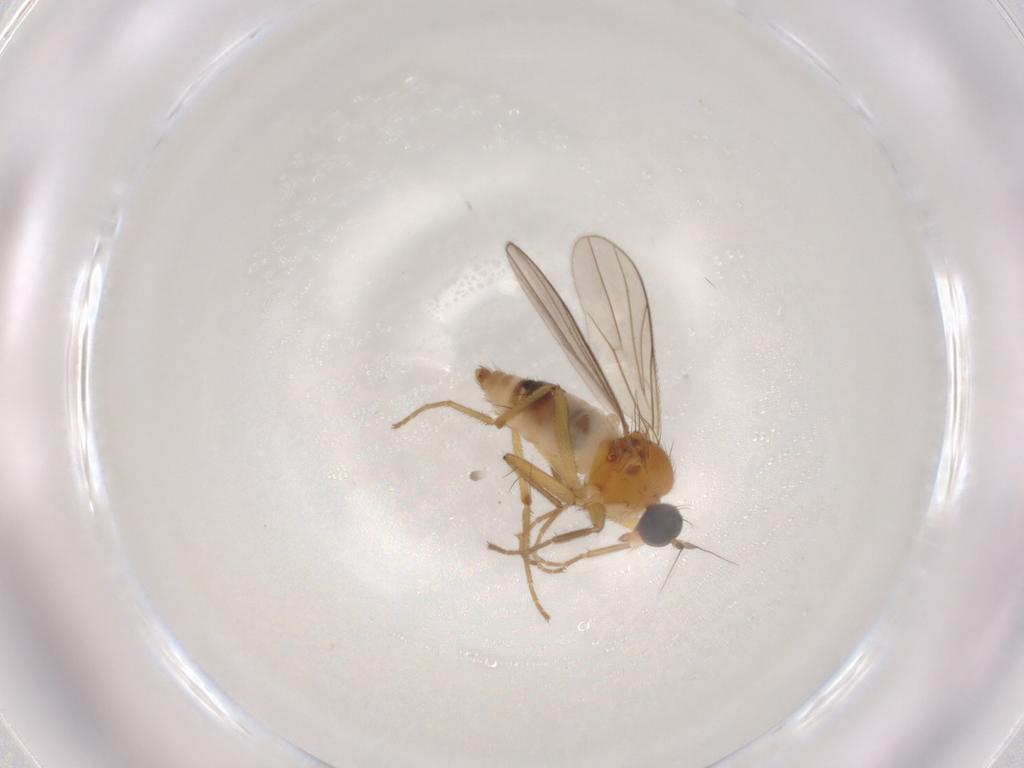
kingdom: Animalia
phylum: Arthropoda
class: Insecta
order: Diptera
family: Hybotidae
